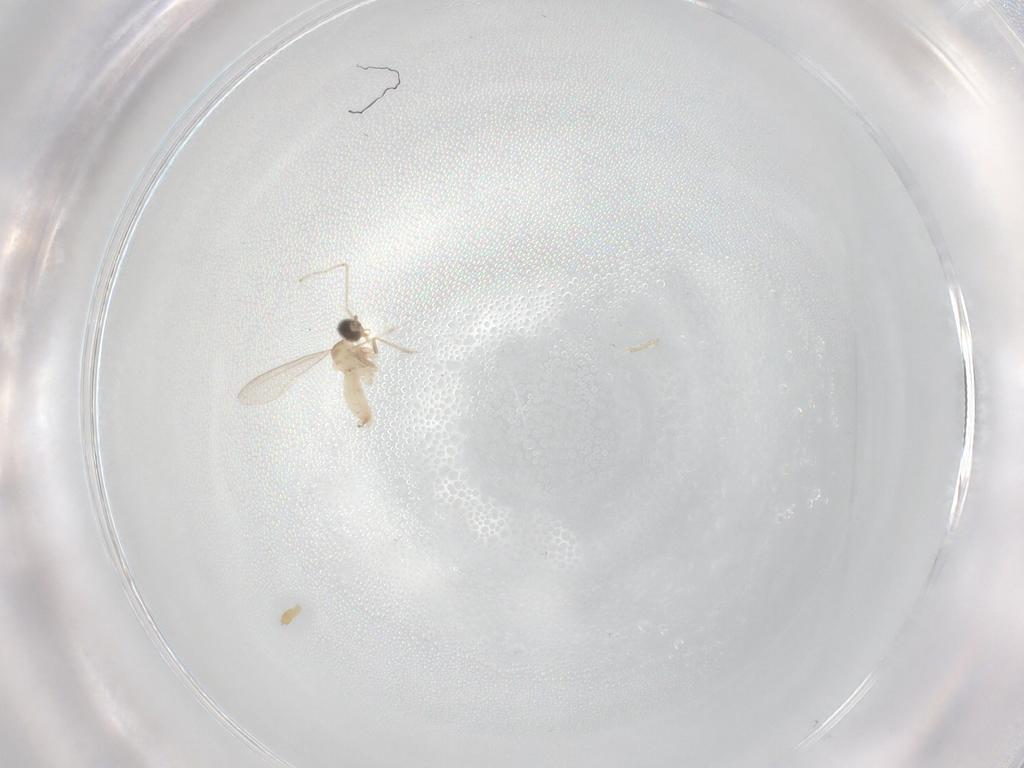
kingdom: Animalia
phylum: Arthropoda
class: Insecta
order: Diptera
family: Cecidomyiidae
